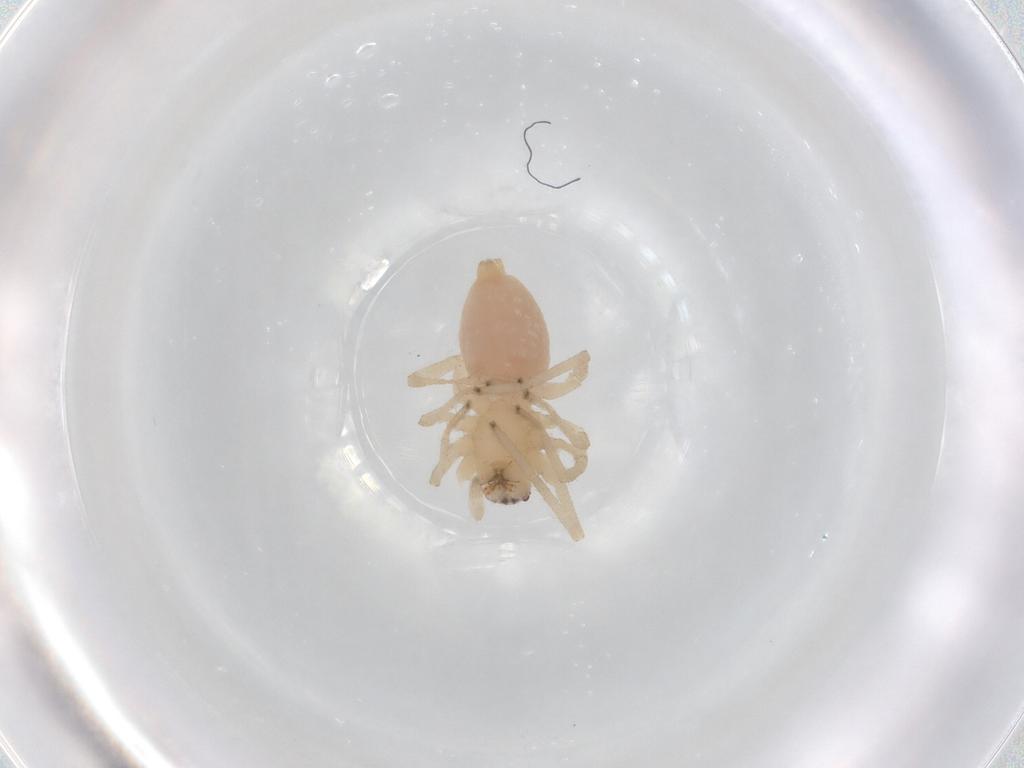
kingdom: Animalia
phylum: Arthropoda
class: Arachnida
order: Araneae
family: Cheiracanthiidae
